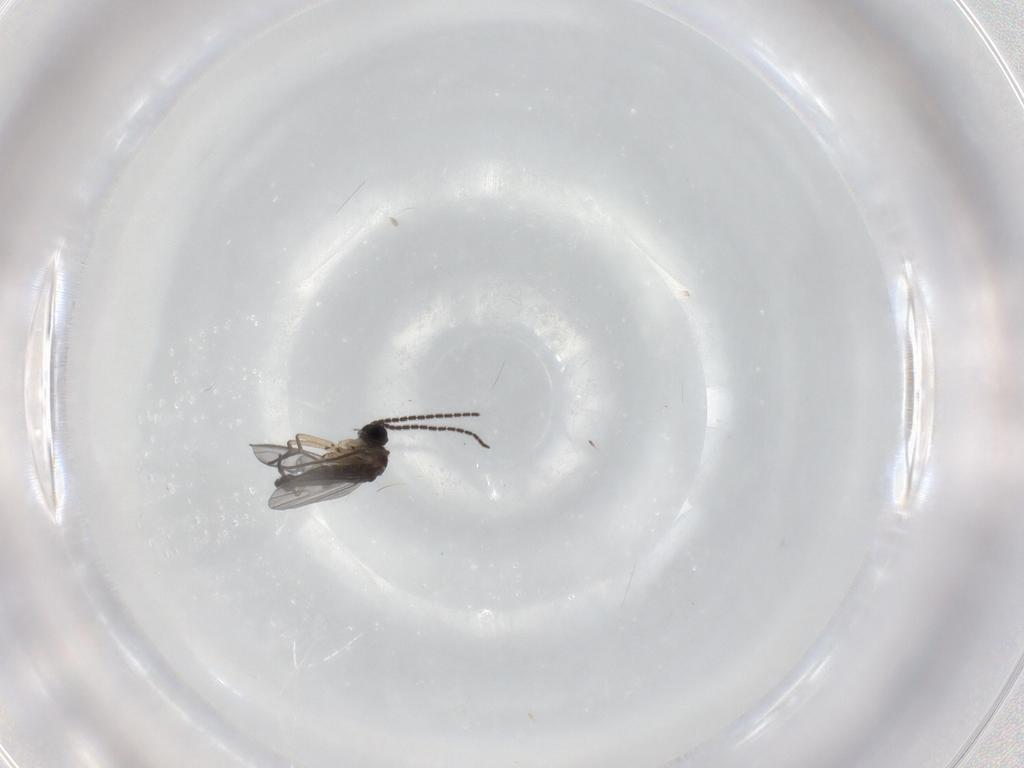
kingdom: Animalia
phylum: Arthropoda
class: Insecta
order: Diptera
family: Sciaridae
